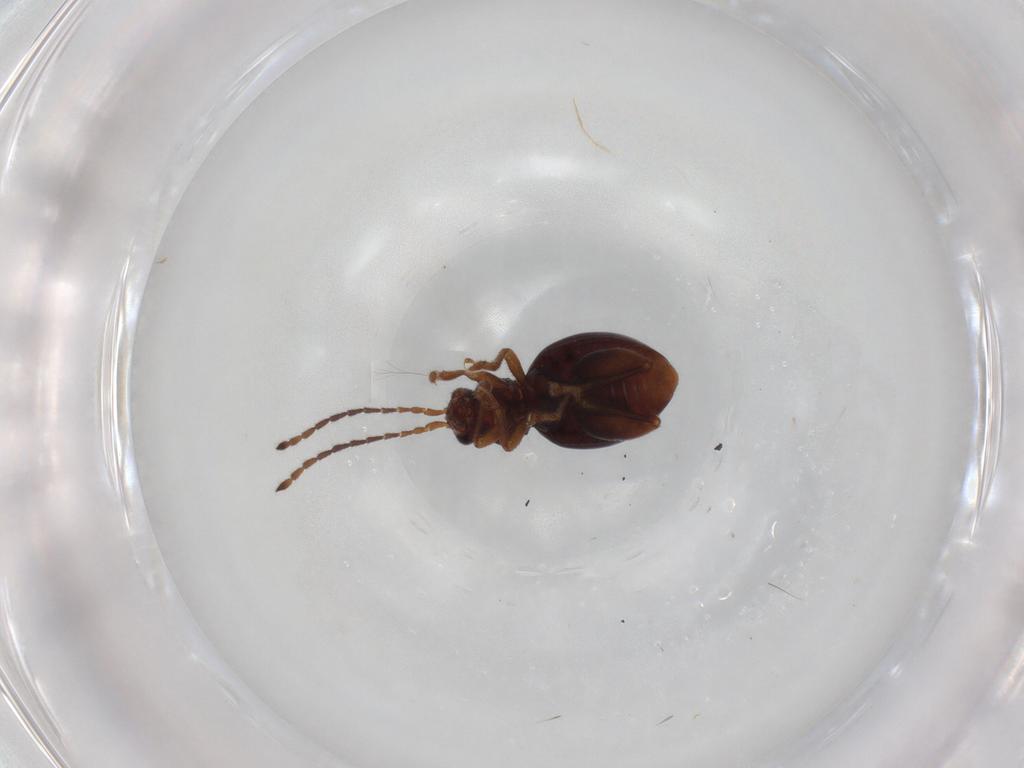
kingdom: Animalia
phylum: Arthropoda
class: Insecta
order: Coleoptera
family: Chrysomelidae
